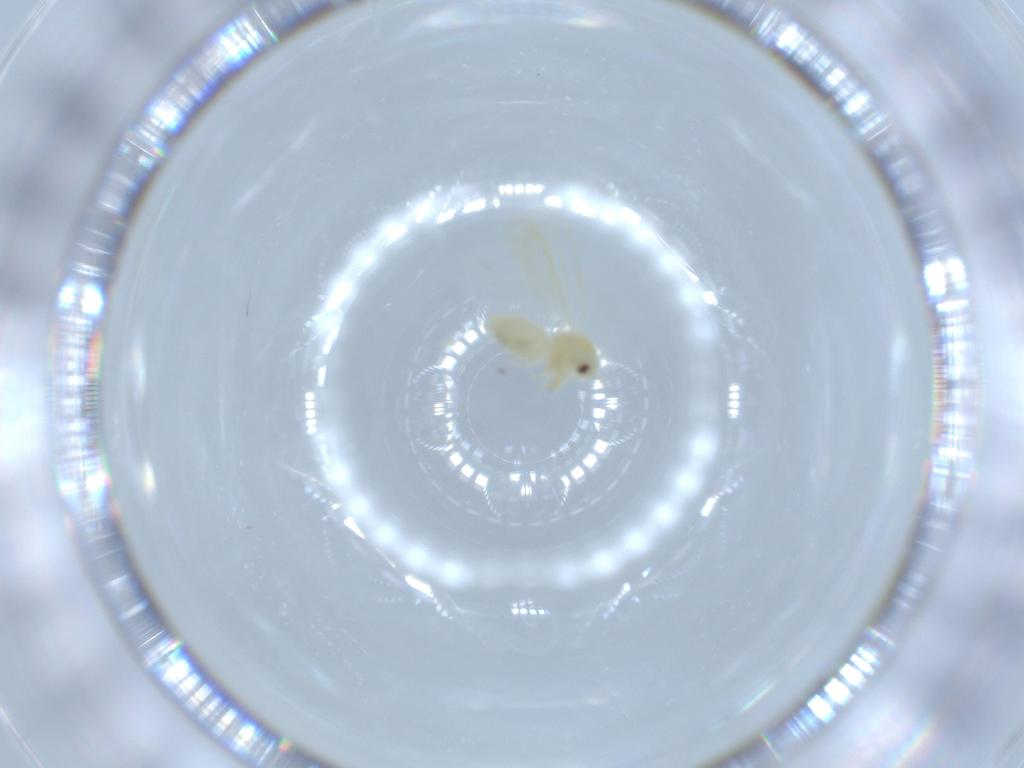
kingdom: Animalia
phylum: Arthropoda
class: Insecta
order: Hemiptera
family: Aleyrodidae
